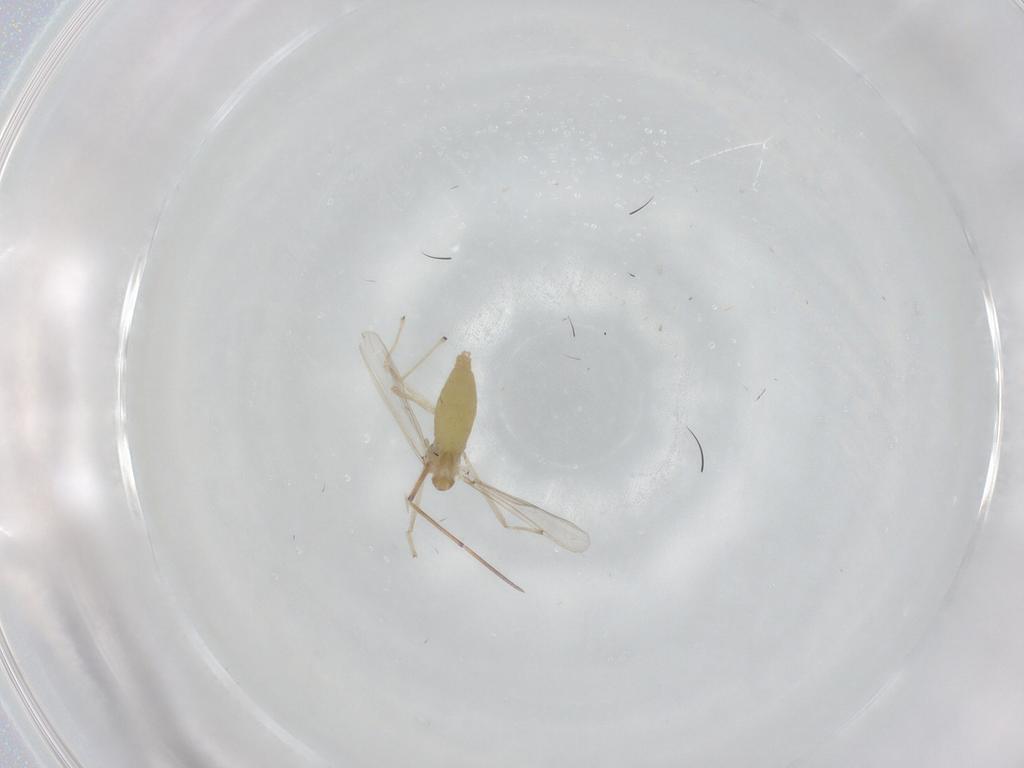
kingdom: Animalia
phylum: Arthropoda
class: Insecta
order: Diptera
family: Chironomidae
